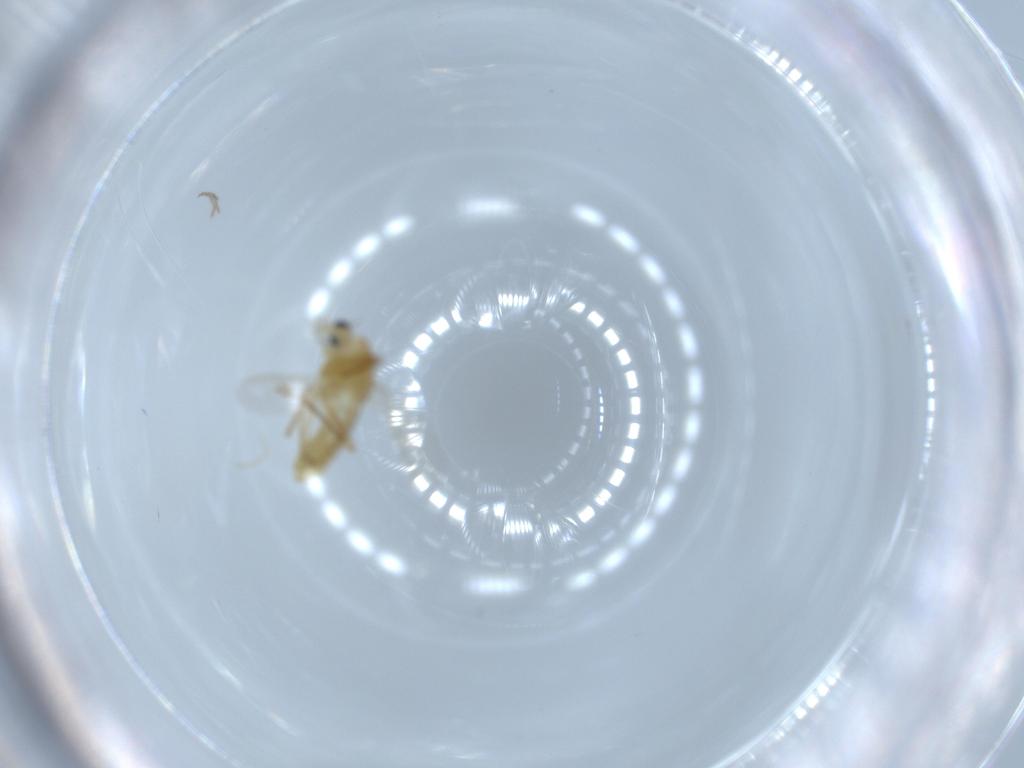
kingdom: Animalia
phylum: Arthropoda
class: Insecta
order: Diptera
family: Chironomidae
